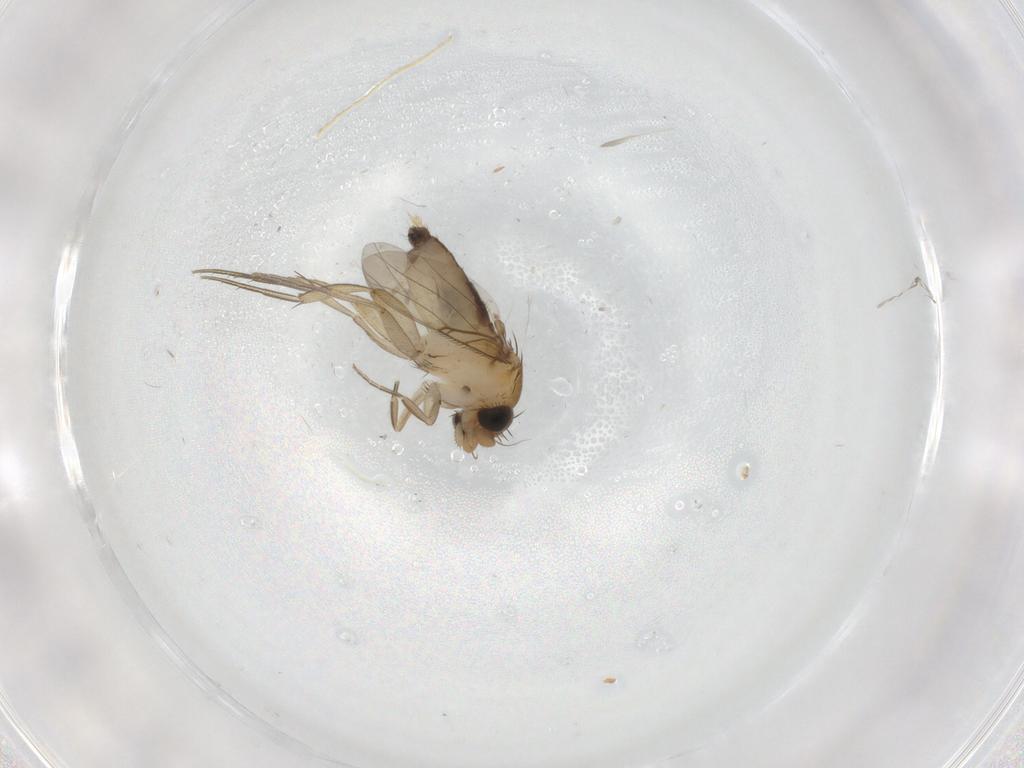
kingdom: Animalia
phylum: Arthropoda
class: Insecta
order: Diptera
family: Phoridae
